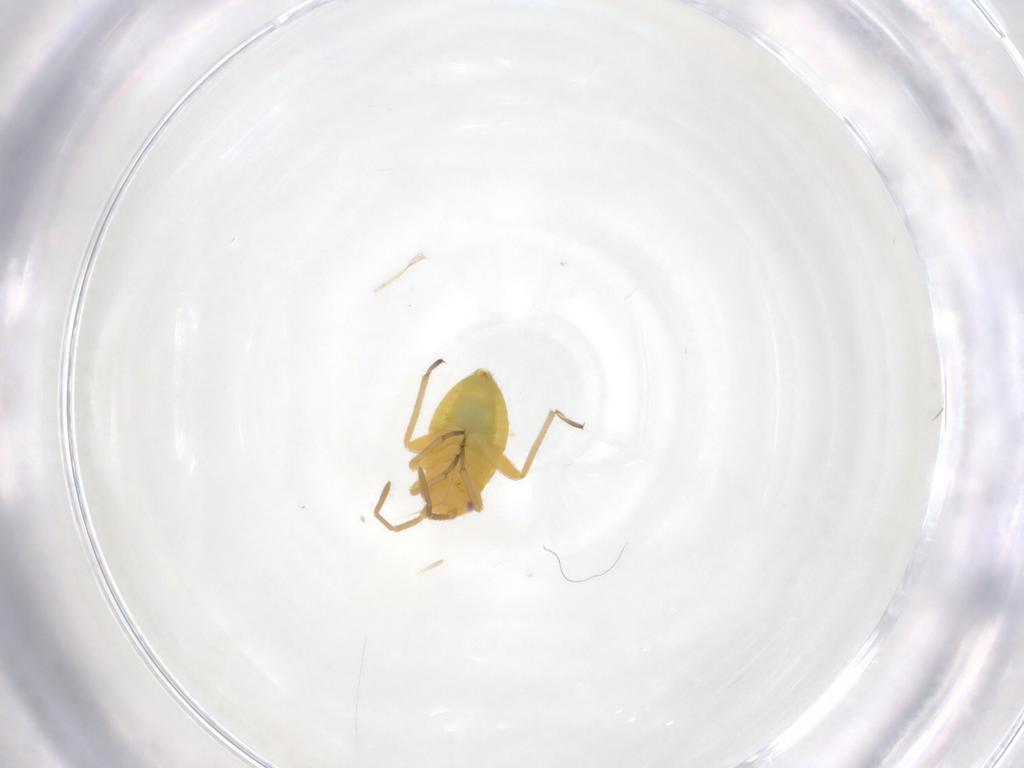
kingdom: Animalia
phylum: Arthropoda
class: Insecta
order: Hemiptera
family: Miridae
